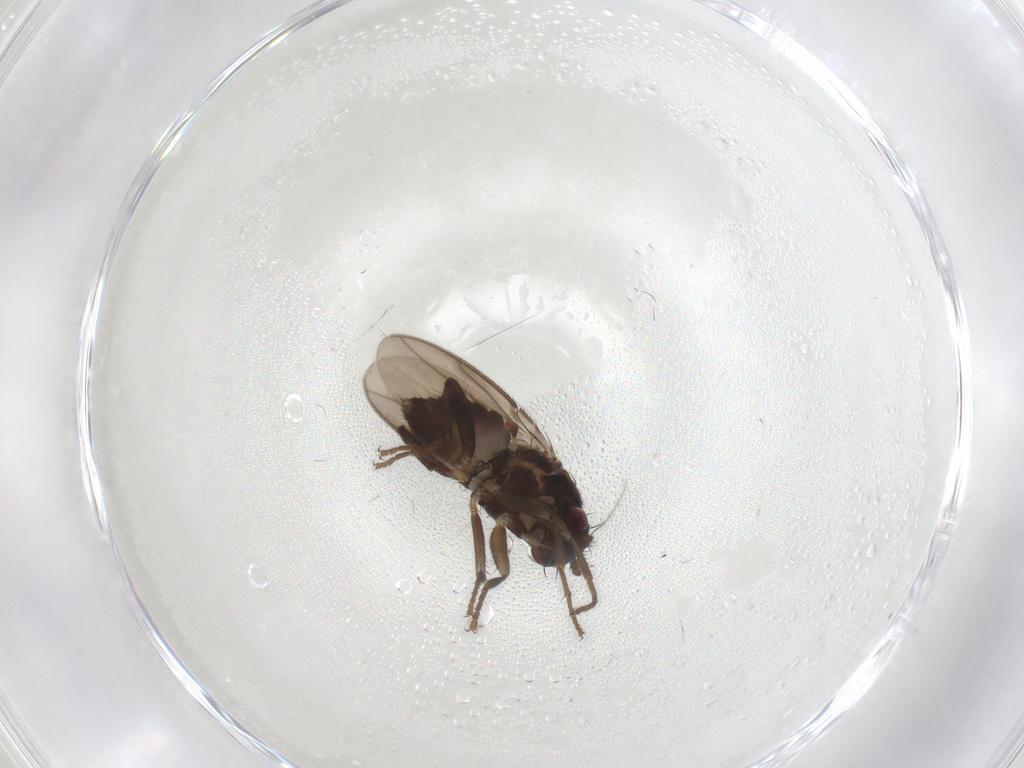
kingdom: Animalia
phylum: Arthropoda
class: Insecta
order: Diptera
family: Sphaeroceridae
